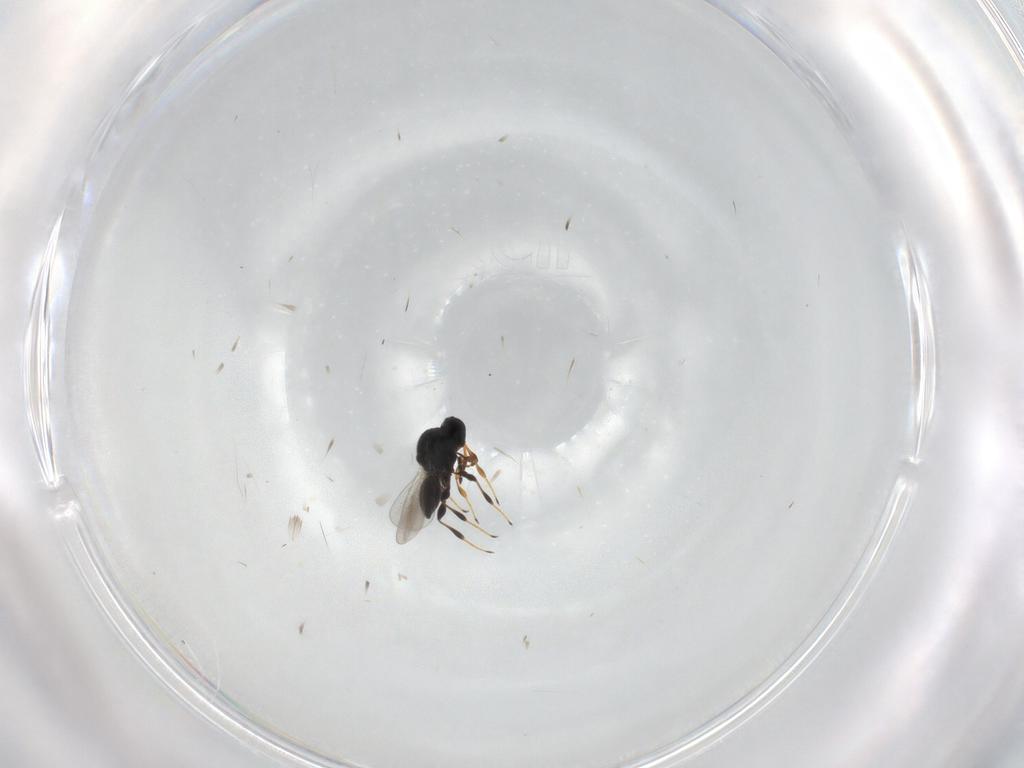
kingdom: Animalia
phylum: Arthropoda
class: Insecta
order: Hymenoptera
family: Platygastridae
